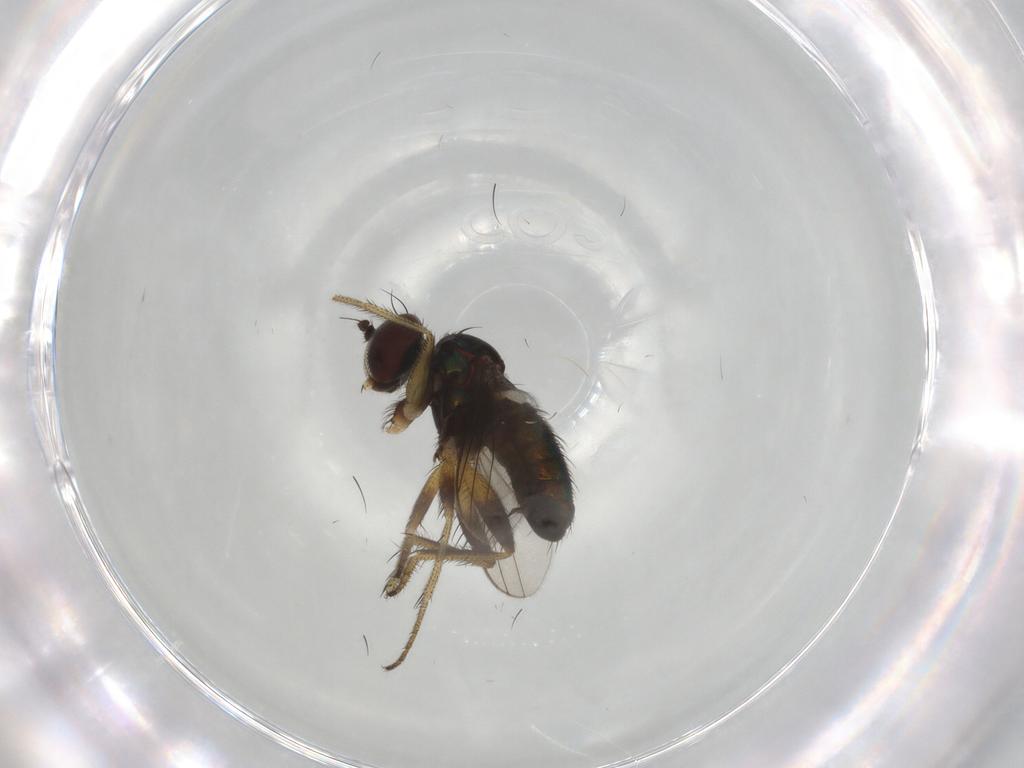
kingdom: Animalia
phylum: Arthropoda
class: Insecta
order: Diptera
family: Dolichopodidae
